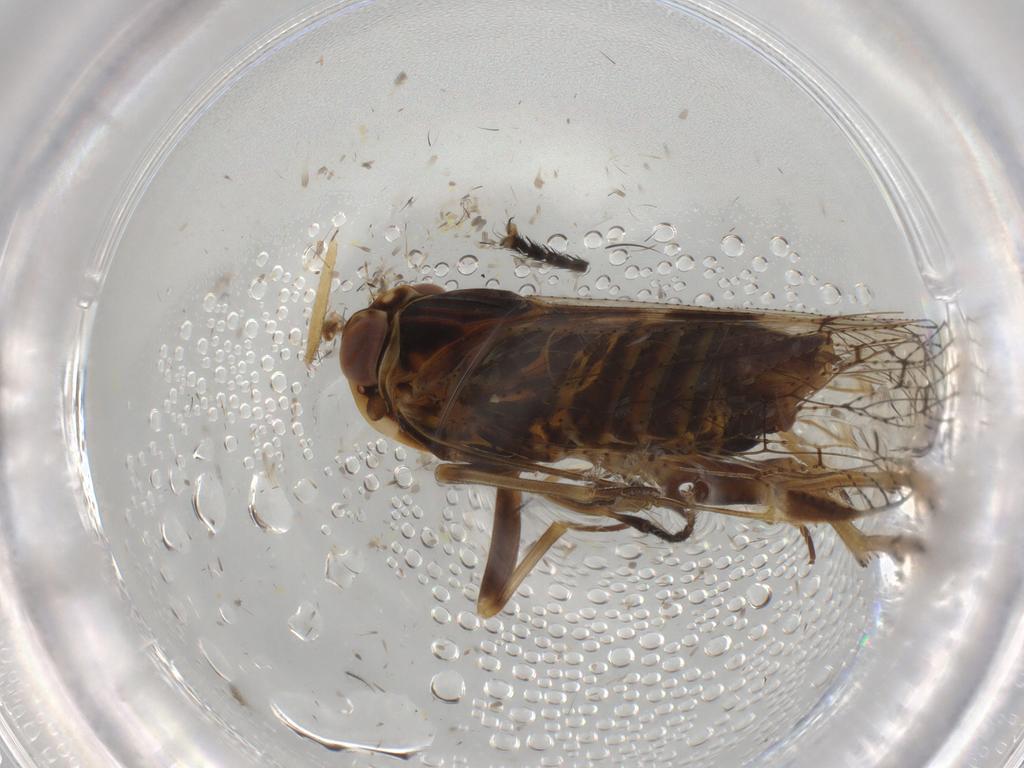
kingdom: Animalia
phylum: Arthropoda
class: Insecta
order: Hemiptera
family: Cixiidae
